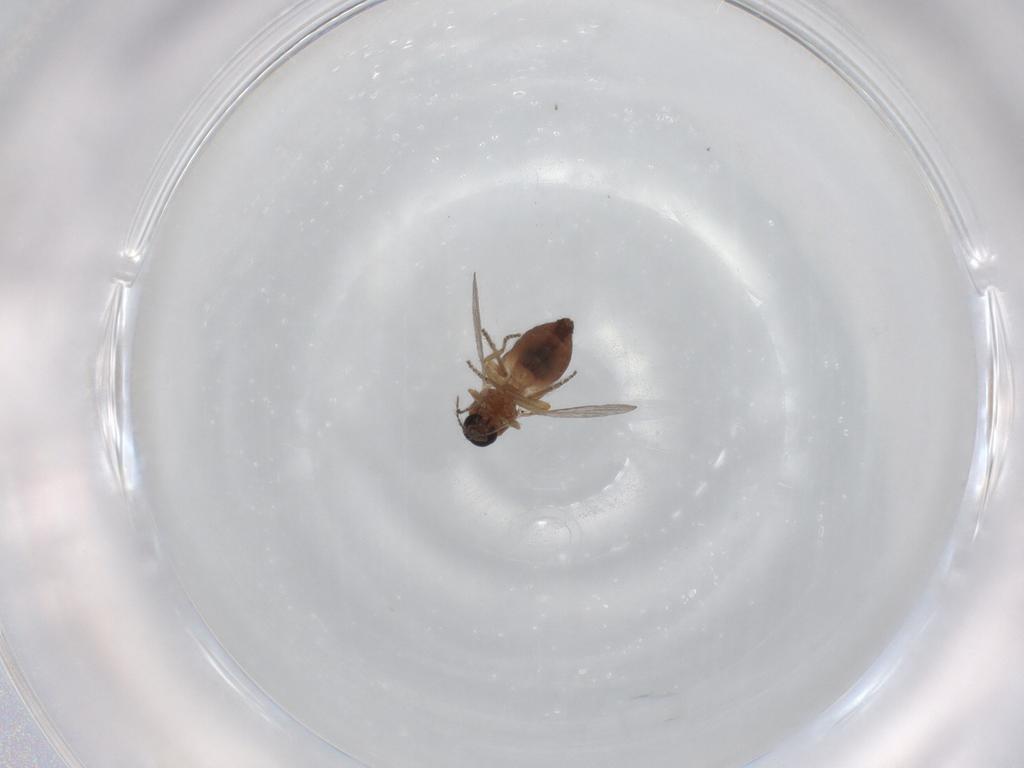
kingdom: Animalia
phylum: Arthropoda
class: Insecta
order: Diptera
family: Ceratopogonidae
